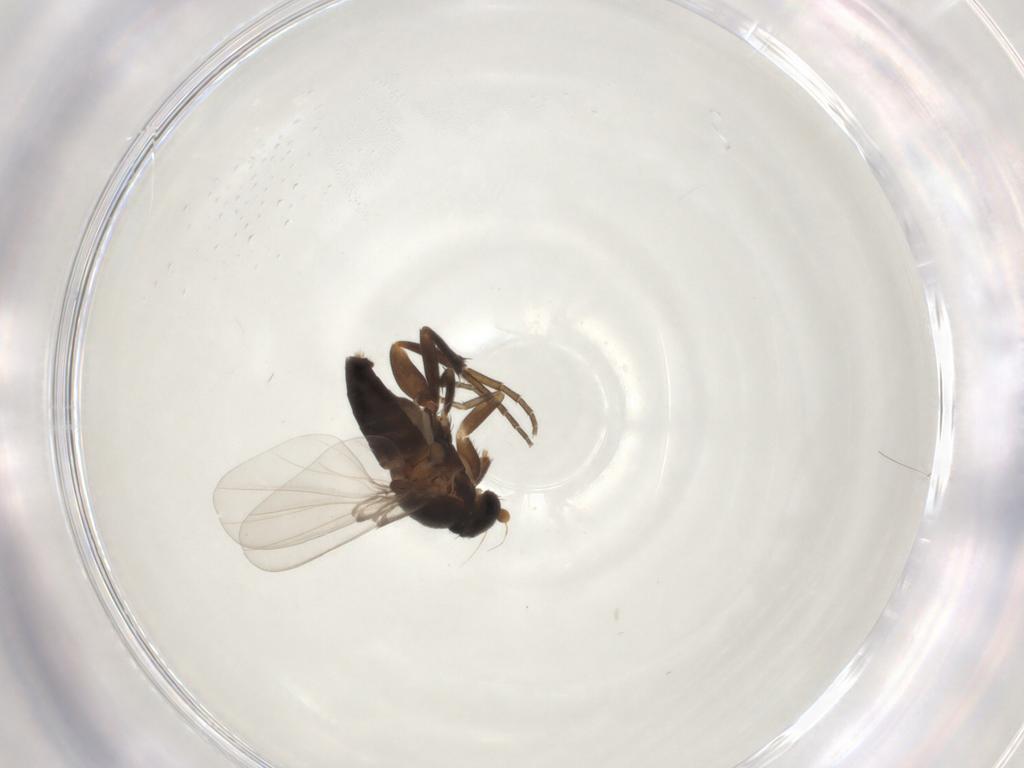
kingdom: Animalia
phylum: Arthropoda
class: Insecta
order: Diptera
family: Phoridae
